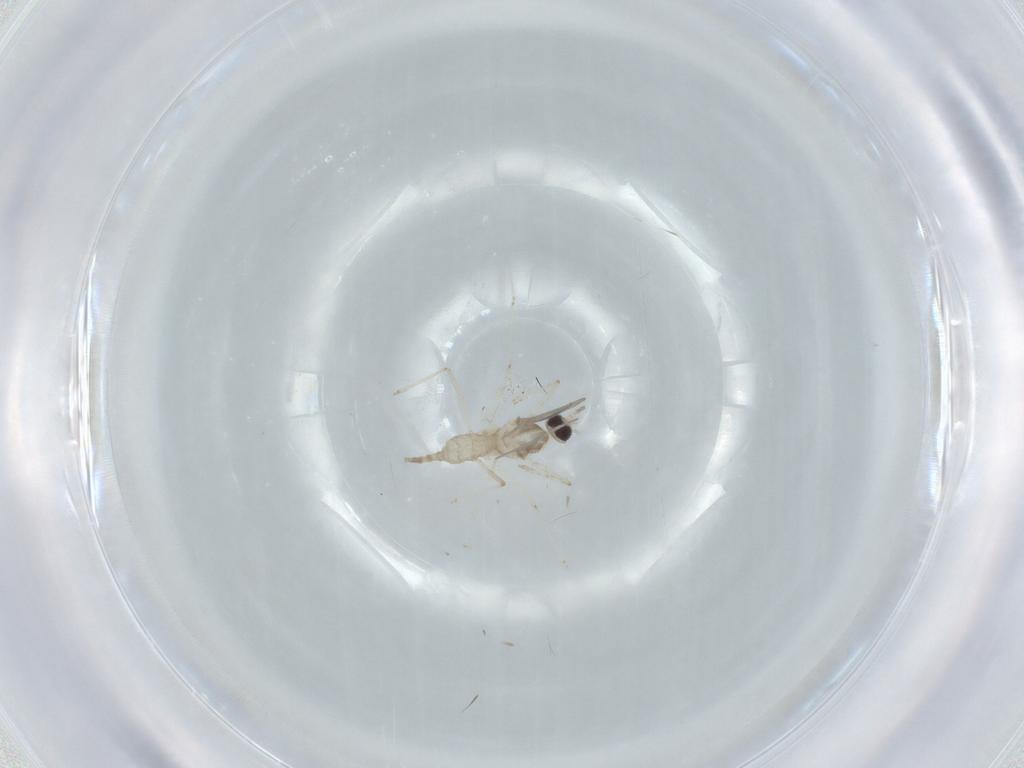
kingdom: Animalia
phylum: Arthropoda
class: Insecta
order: Diptera
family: Cecidomyiidae
